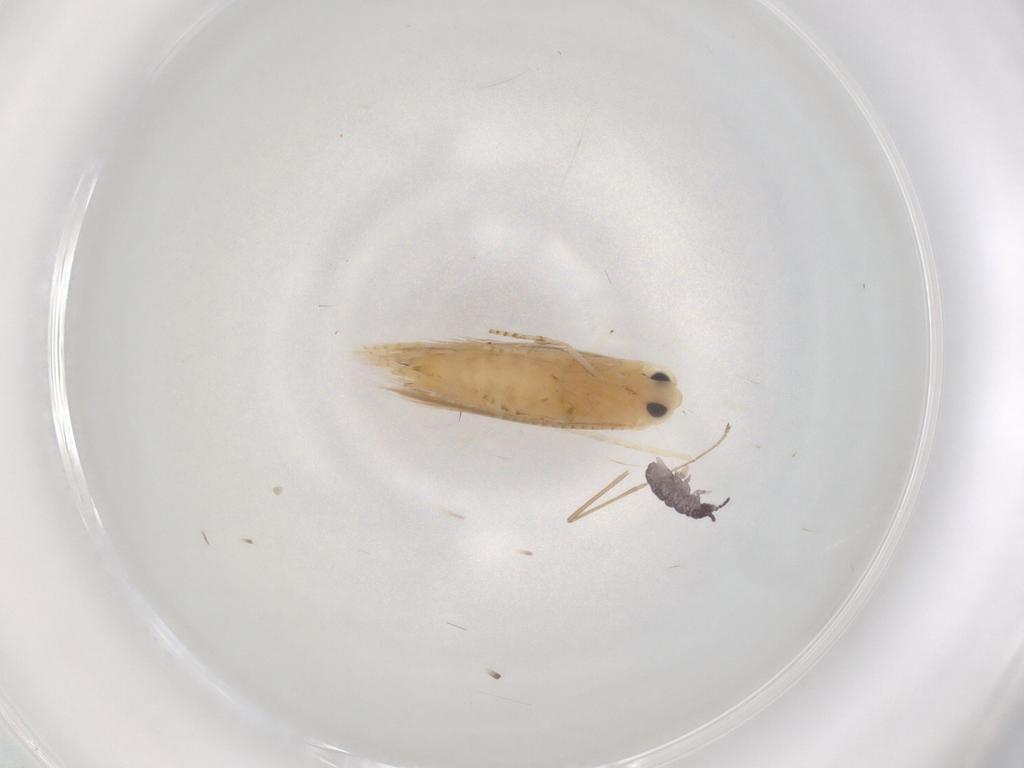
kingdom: Animalia
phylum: Arthropoda
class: Insecta
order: Lepidoptera
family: Bucculatricidae
